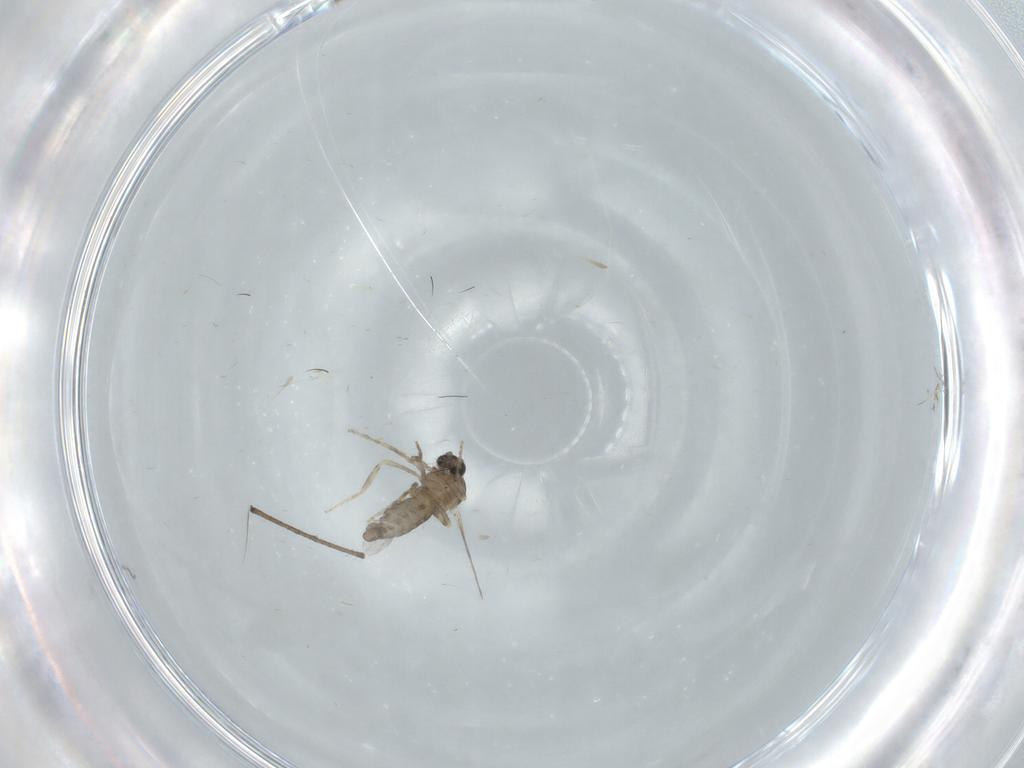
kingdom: Animalia
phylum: Arthropoda
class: Insecta
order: Diptera
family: Ceratopogonidae
